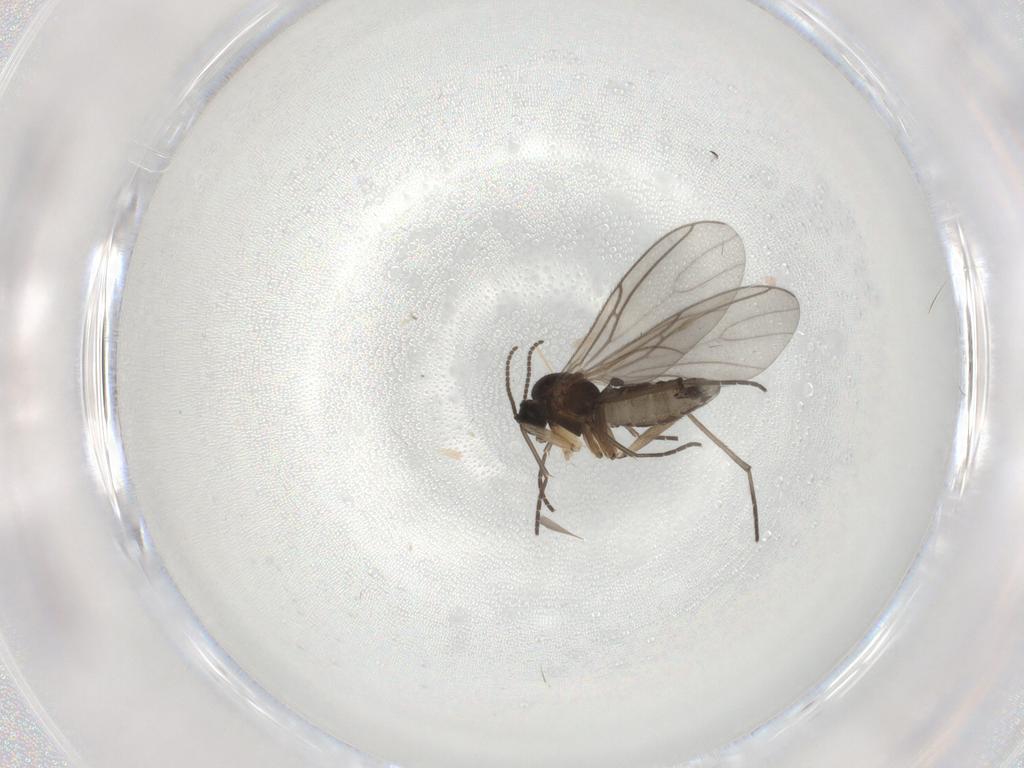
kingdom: Animalia
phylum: Arthropoda
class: Insecta
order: Diptera
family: Sciaridae
